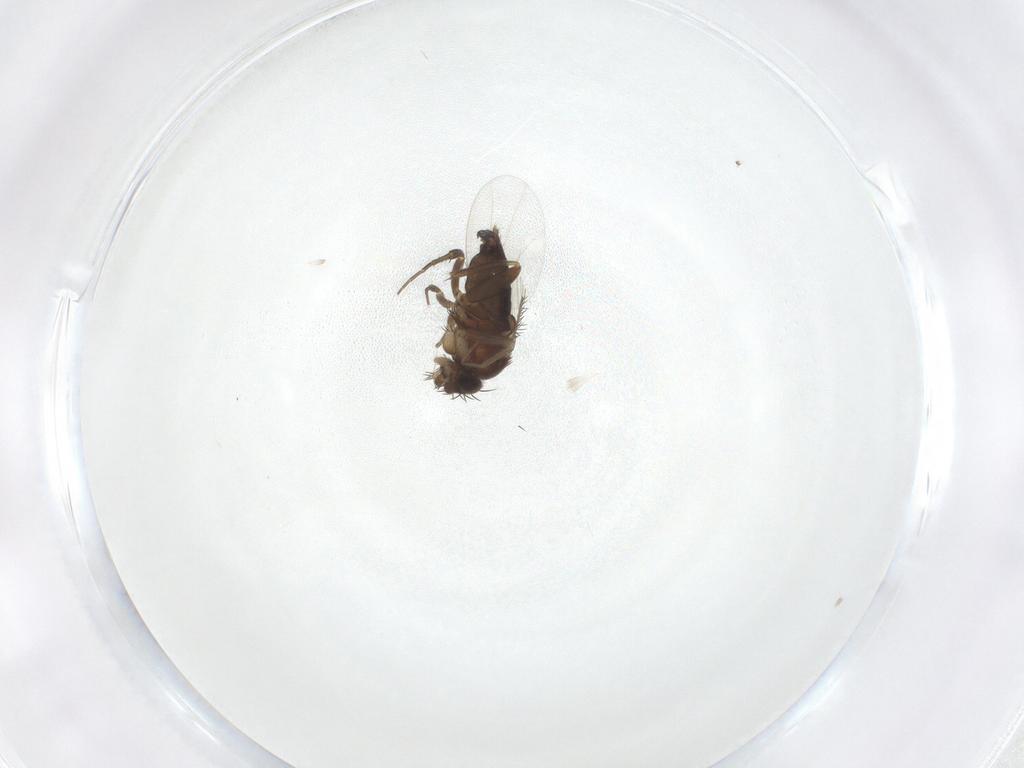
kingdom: Animalia
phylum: Arthropoda
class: Insecta
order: Diptera
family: Phoridae
